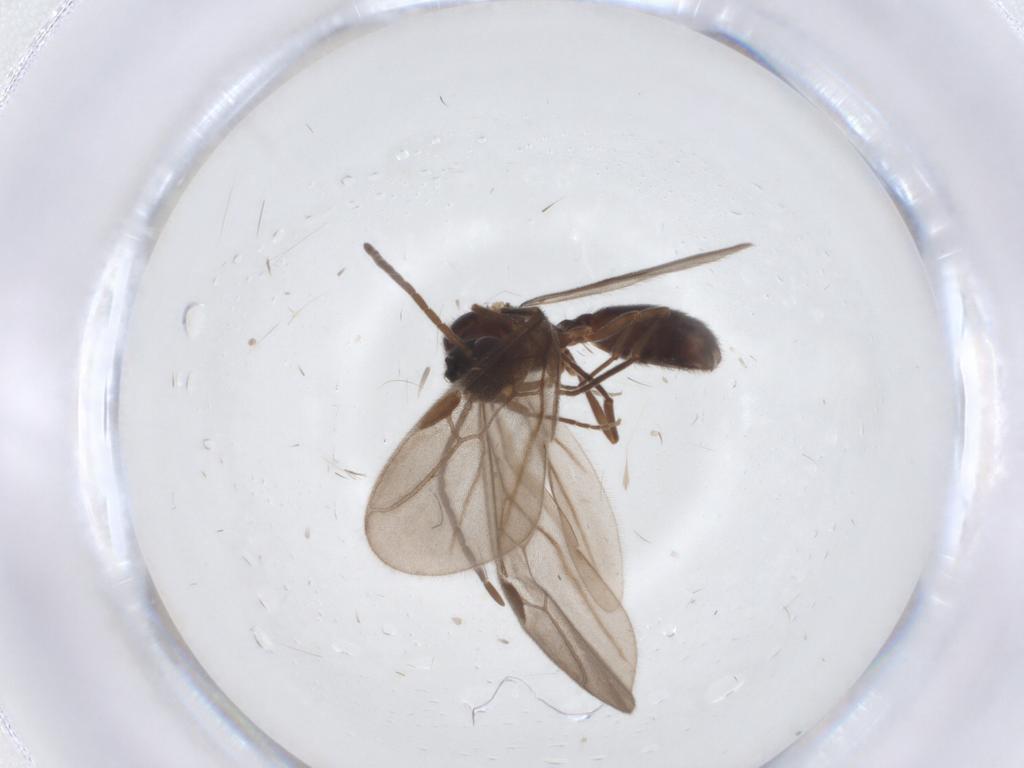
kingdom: Animalia
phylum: Arthropoda
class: Insecta
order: Hymenoptera
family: Formicidae
